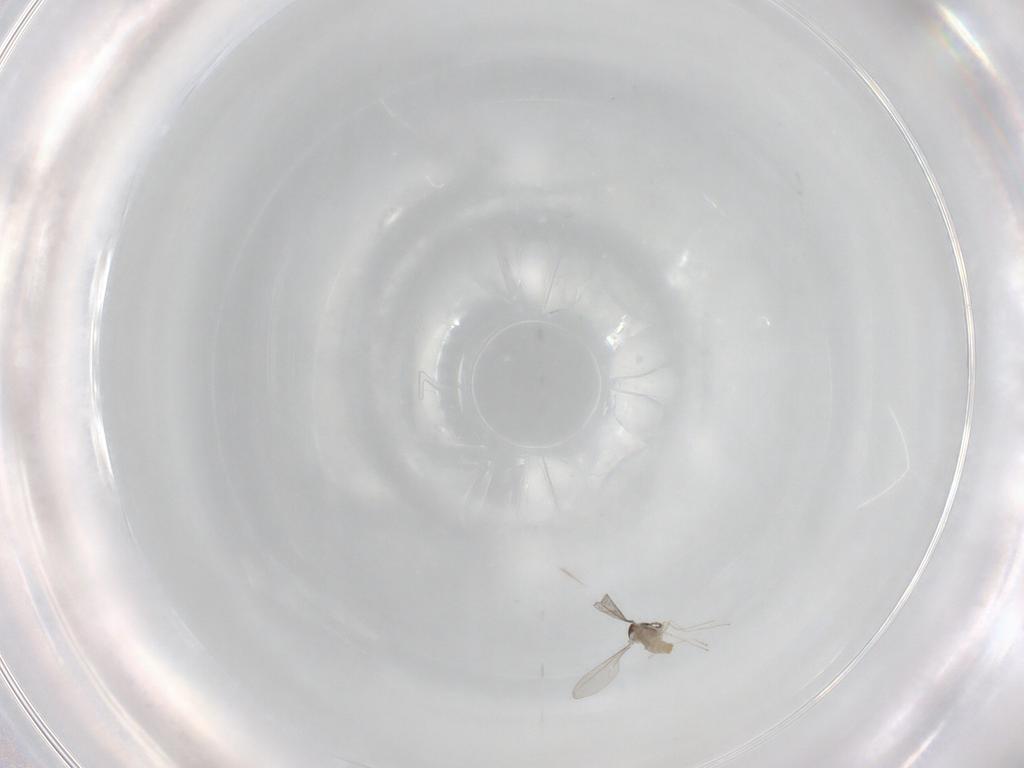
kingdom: Animalia
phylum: Arthropoda
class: Insecta
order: Diptera
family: Cecidomyiidae
